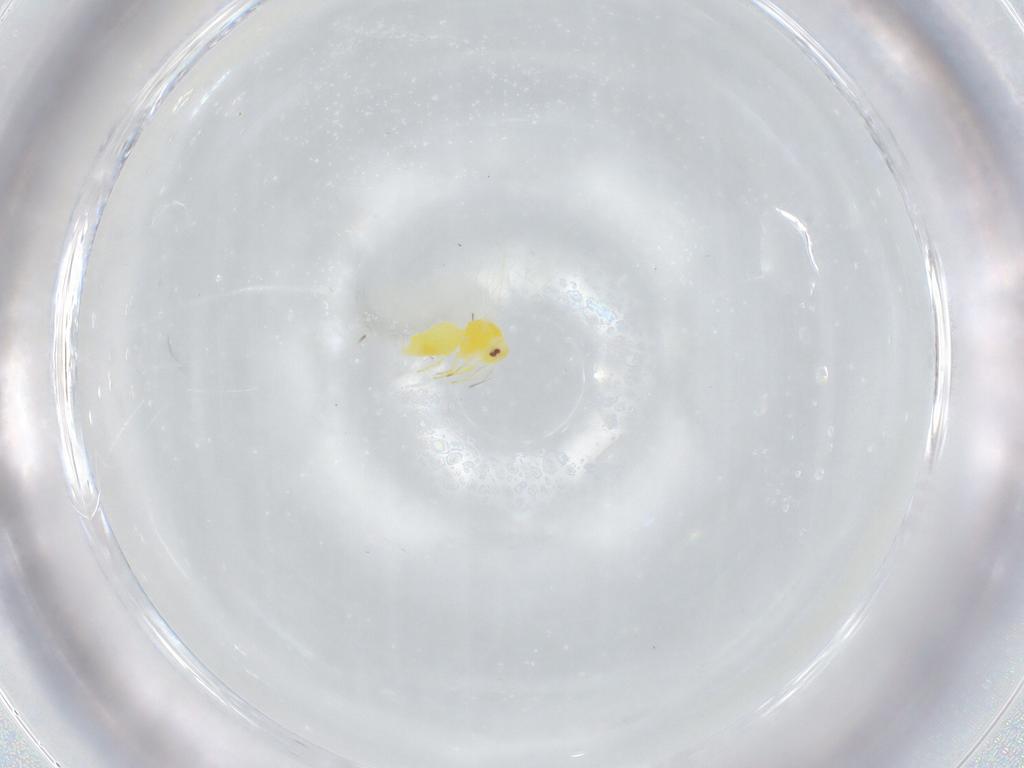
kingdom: Animalia
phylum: Arthropoda
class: Insecta
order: Hemiptera
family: Aleyrodidae
